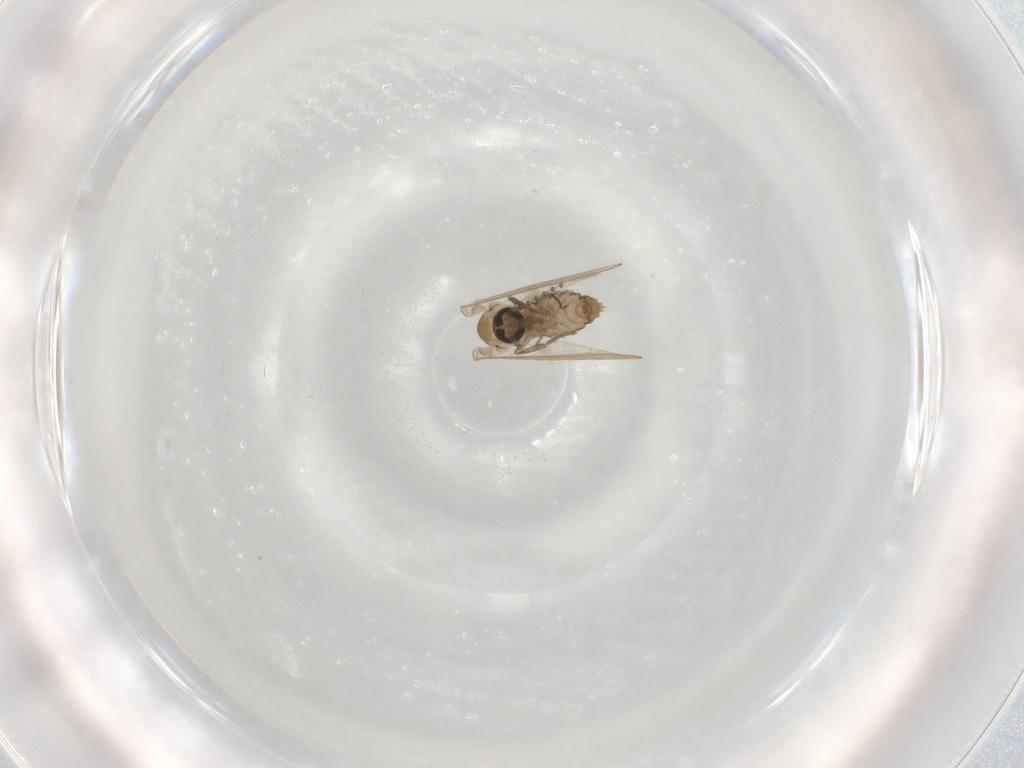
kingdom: Animalia
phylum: Arthropoda
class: Insecta
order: Diptera
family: Psychodidae
